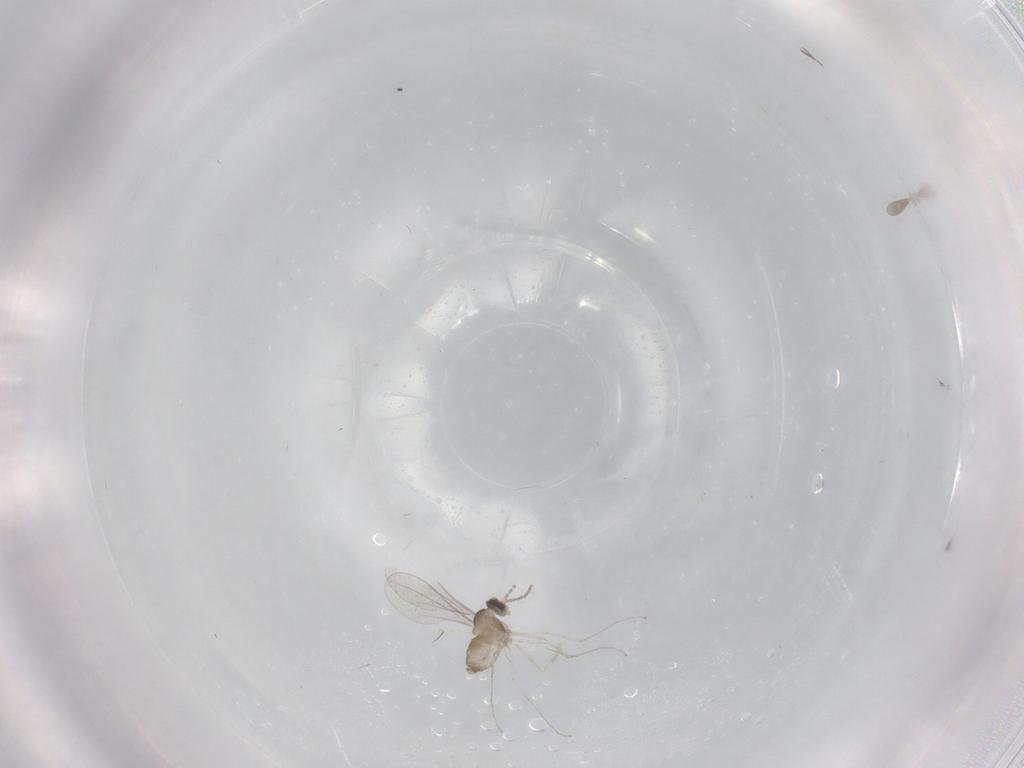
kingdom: Animalia
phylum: Arthropoda
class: Insecta
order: Diptera
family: Cecidomyiidae
